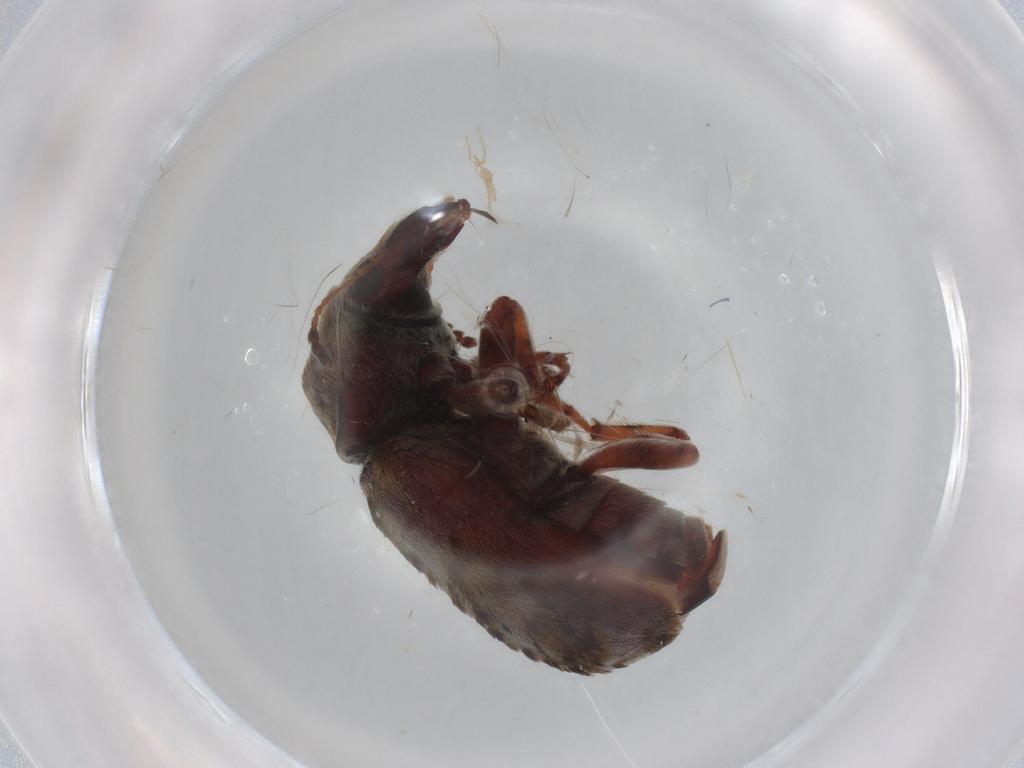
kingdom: Animalia
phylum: Arthropoda
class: Insecta
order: Coleoptera
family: Anthribidae
